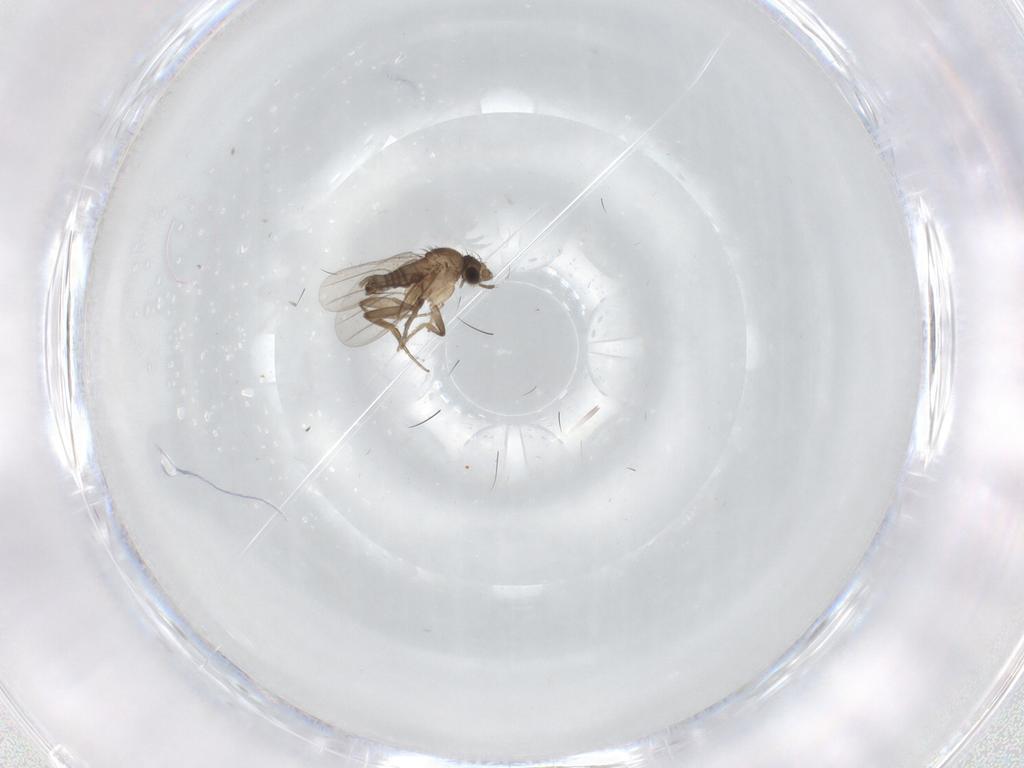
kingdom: Animalia
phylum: Arthropoda
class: Insecta
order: Diptera
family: Sciaridae
